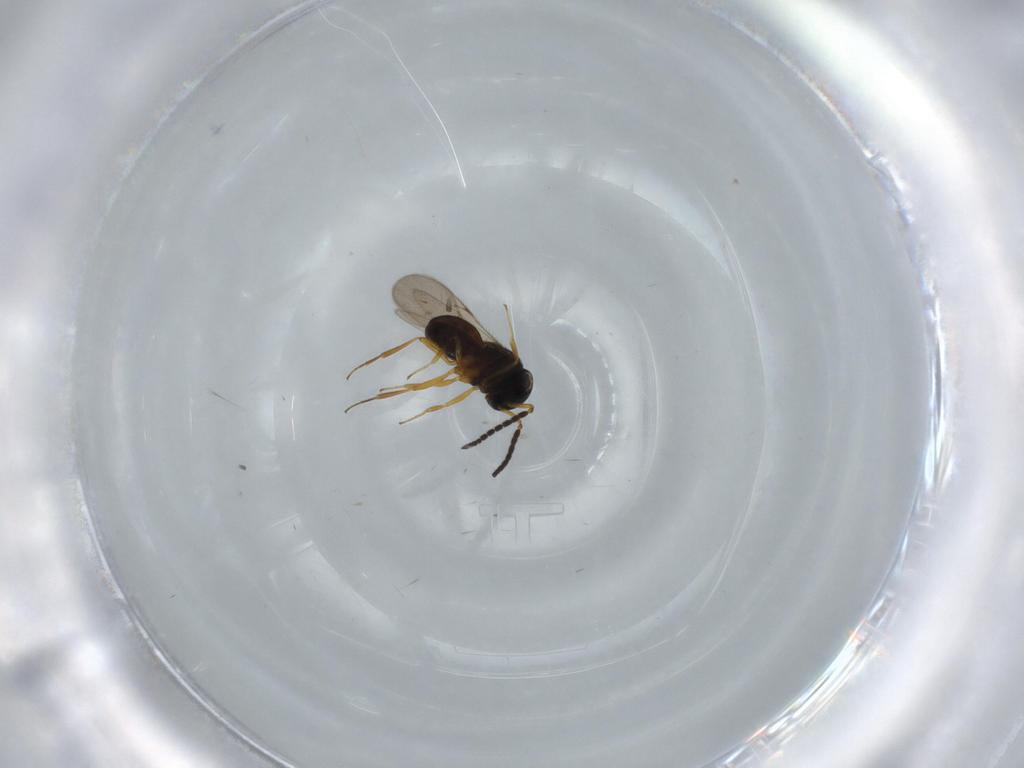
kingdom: Animalia
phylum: Arthropoda
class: Insecta
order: Hymenoptera
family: Scelionidae
